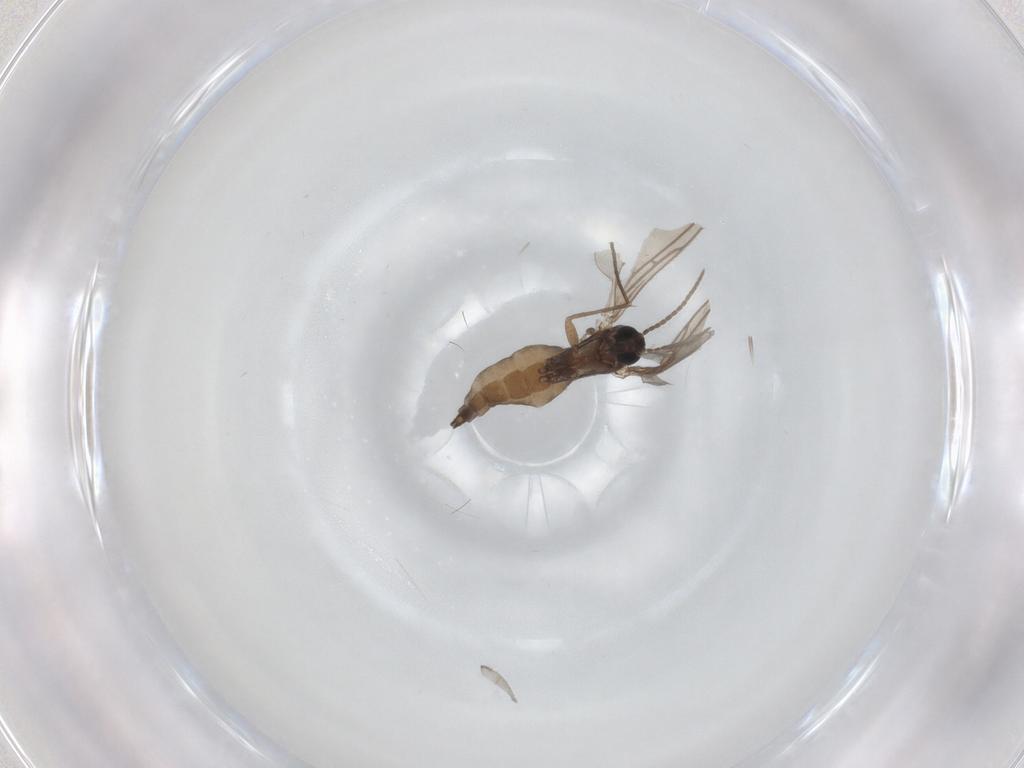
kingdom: Animalia
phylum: Arthropoda
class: Insecta
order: Diptera
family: Sciaridae
